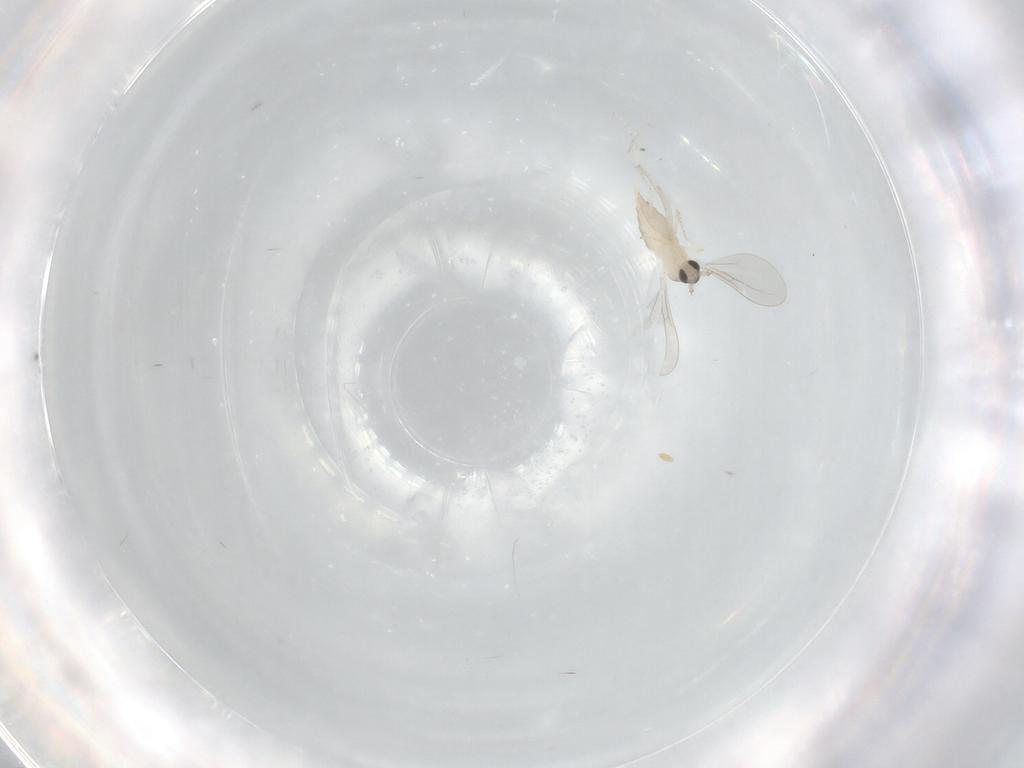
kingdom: Animalia
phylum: Arthropoda
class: Insecta
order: Diptera
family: Cecidomyiidae
